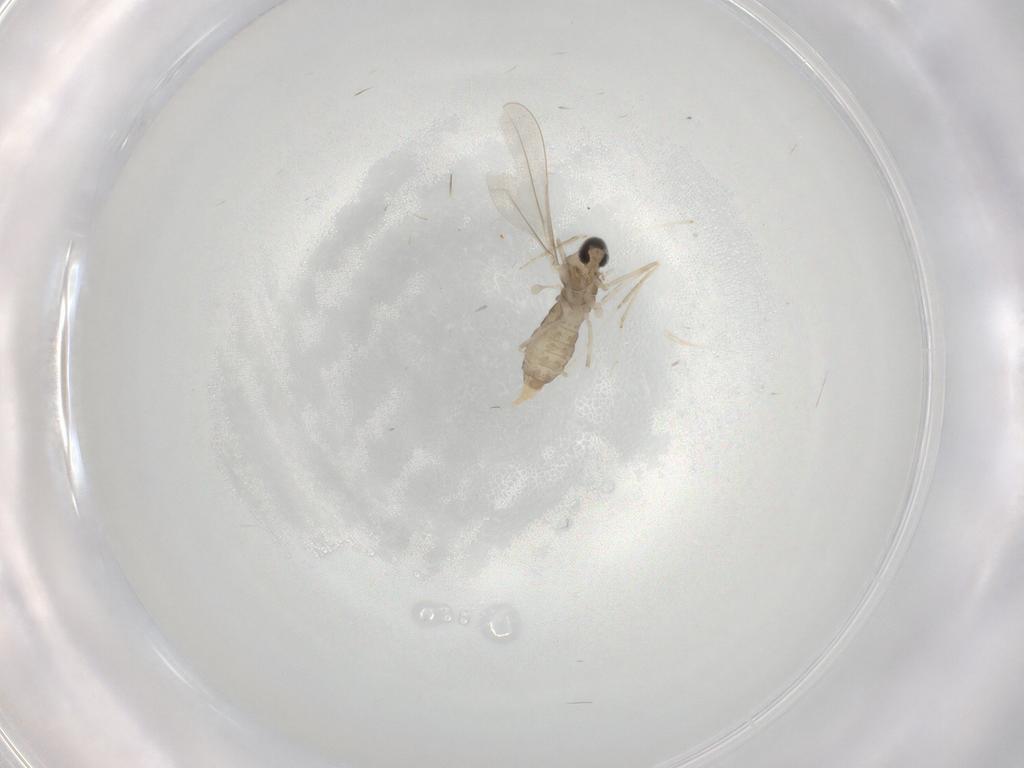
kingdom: Animalia
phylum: Arthropoda
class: Insecta
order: Diptera
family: Cecidomyiidae
